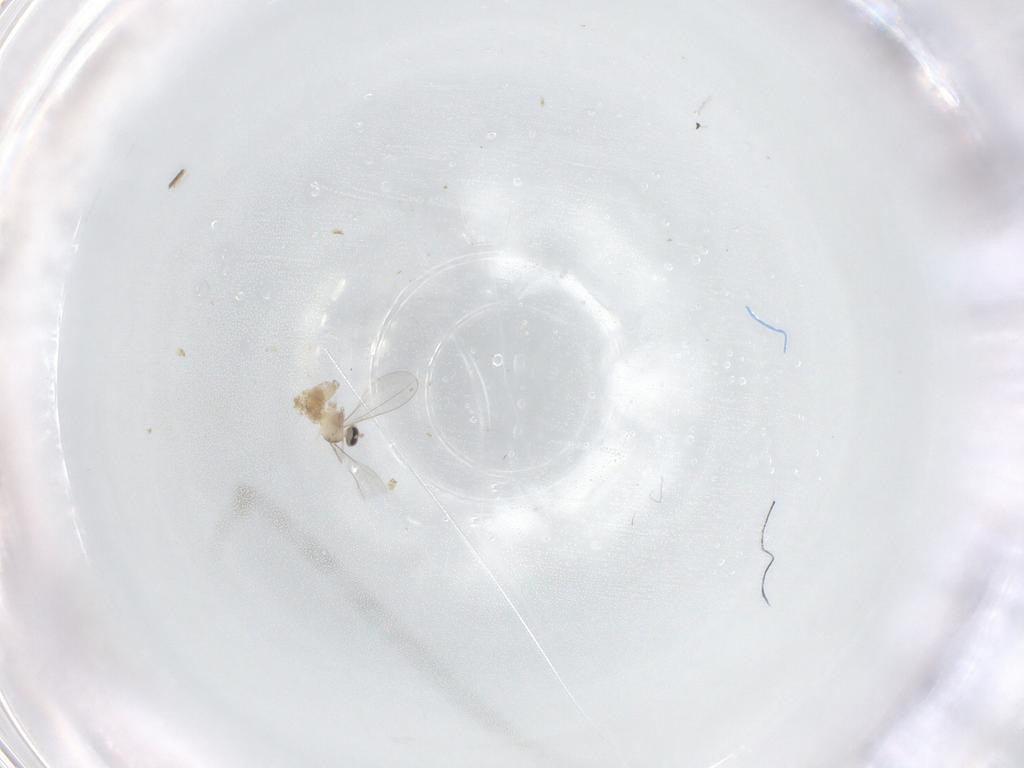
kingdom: Animalia
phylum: Arthropoda
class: Insecta
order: Diptera
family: Cecidomyiidae
